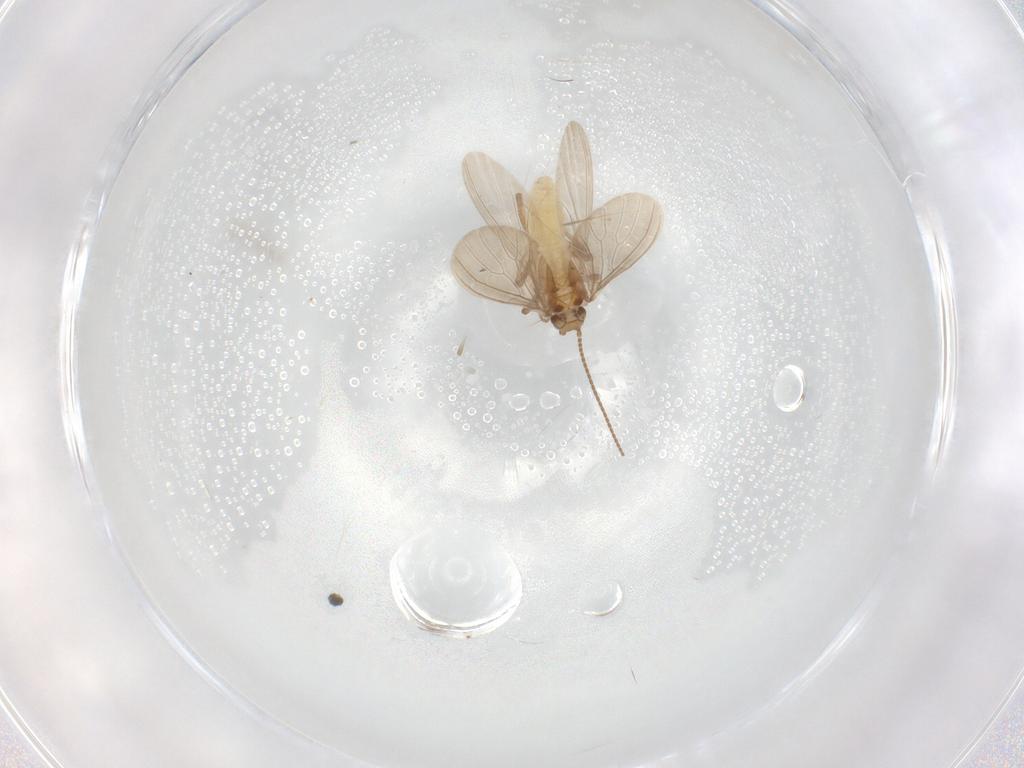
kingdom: Animalia
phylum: Arthropoda
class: Insecta
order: Neuroptera
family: Coniopterygidae
